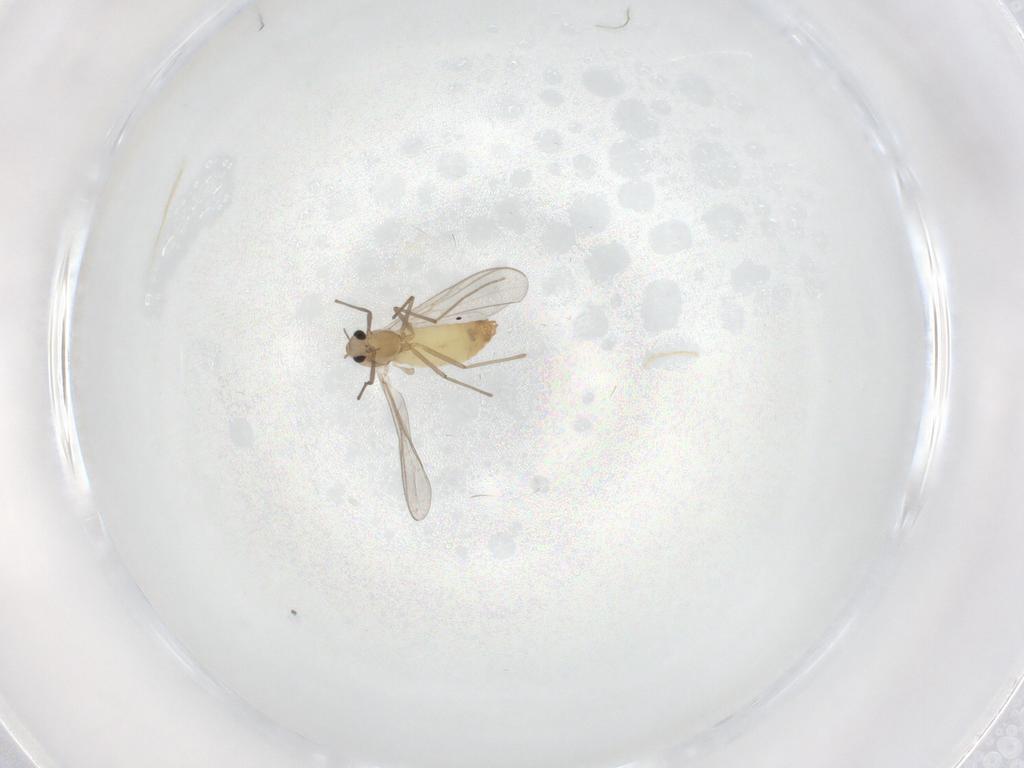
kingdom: Animalia
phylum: Arthropoda
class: Insecta
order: Diptera
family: Chironomidae
